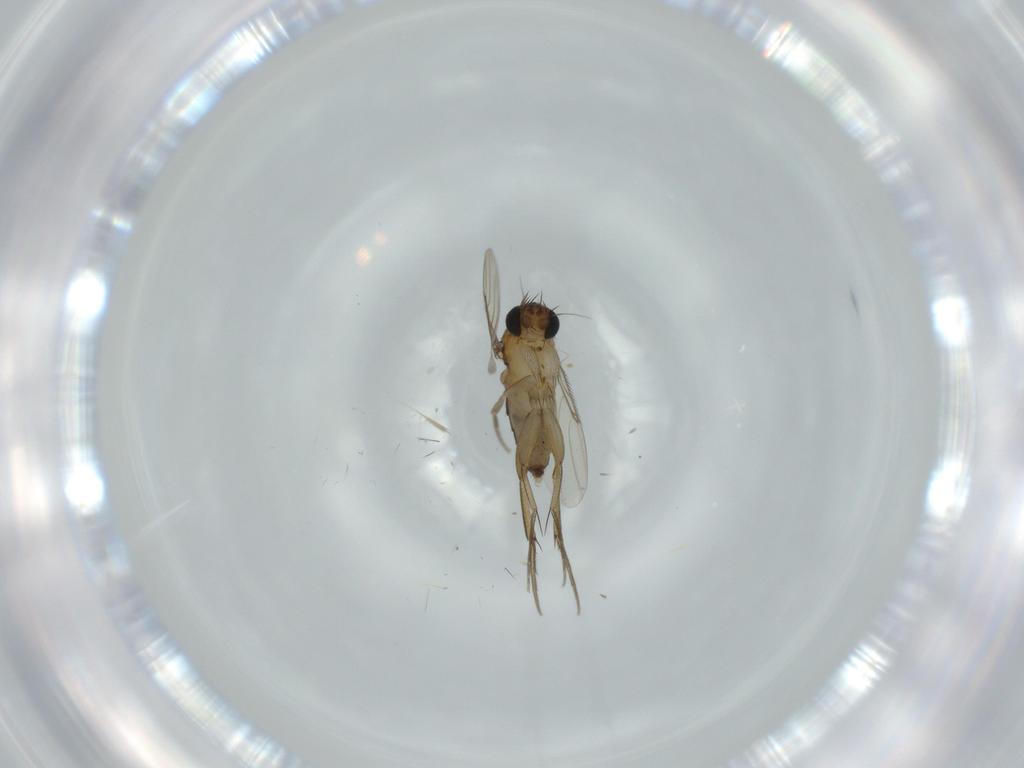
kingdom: Animalia
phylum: Arthropoda
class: Insecta
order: Diptera
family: Phoridae
